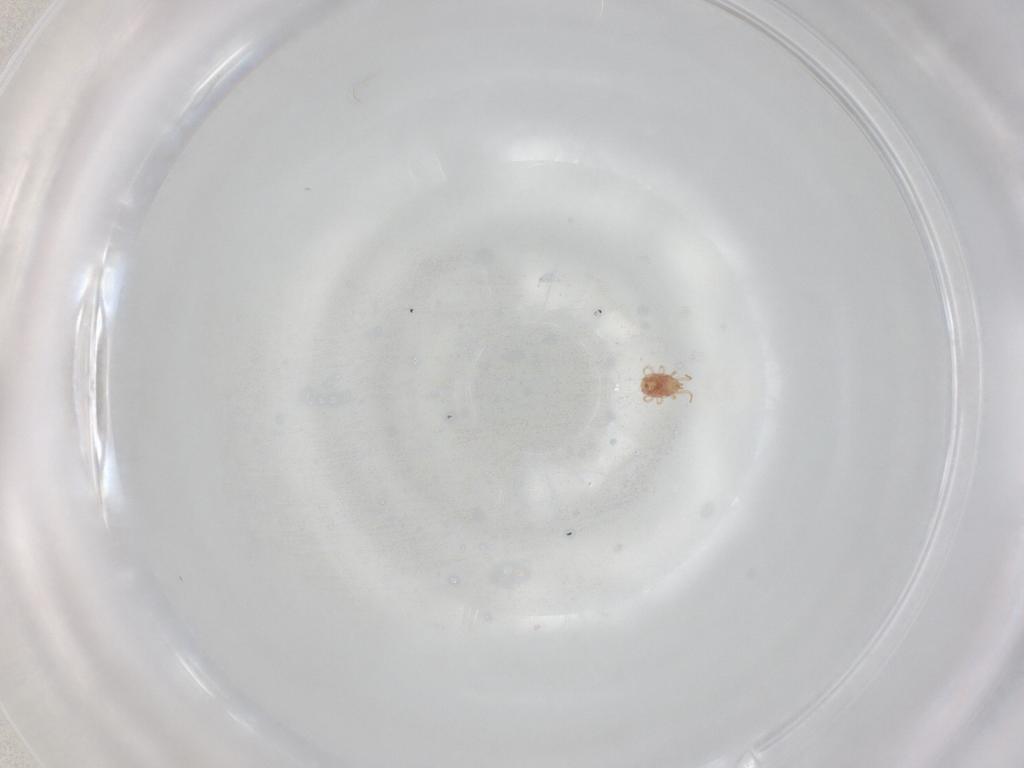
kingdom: Animalia
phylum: Arthropoda
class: Arachnida
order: Mesostigmata
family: Phytoseiidae
